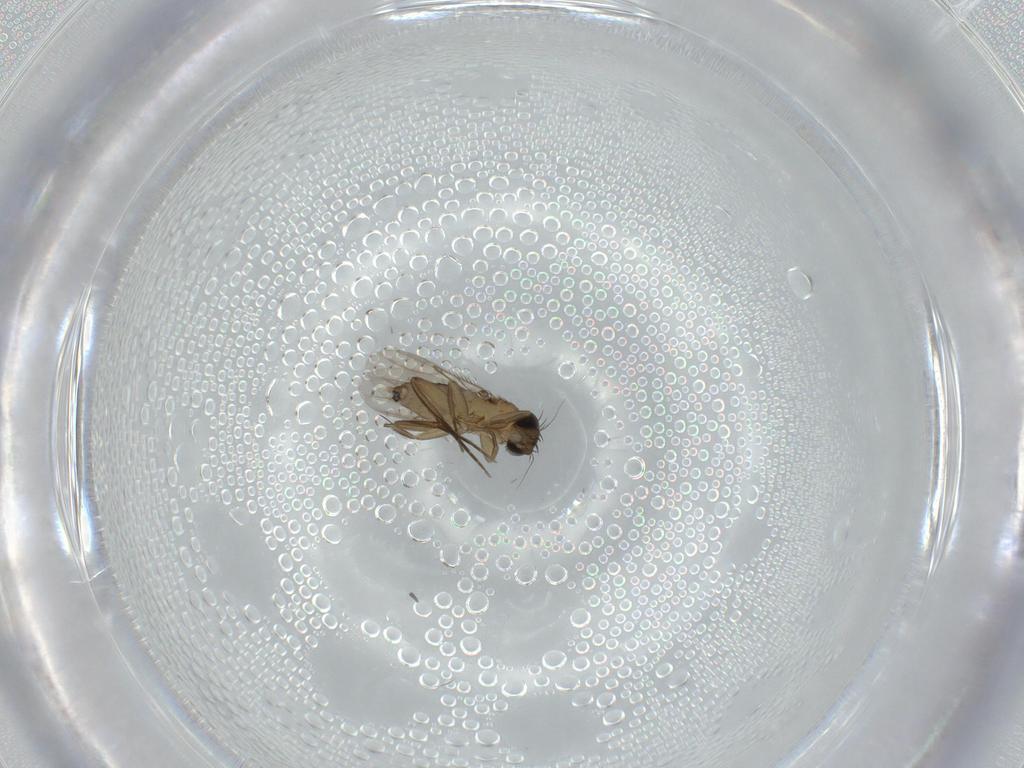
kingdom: Animalia
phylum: Arthropoda
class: Insecta
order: Diptera
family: Phoridae
